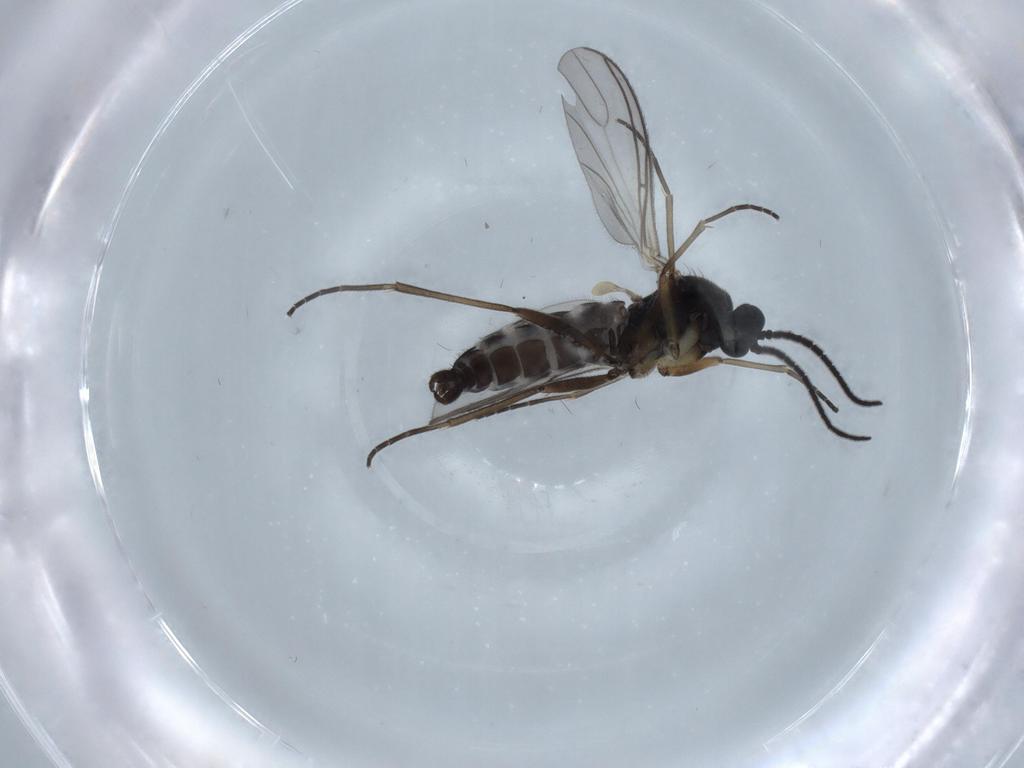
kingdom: Animalia
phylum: Arthropoda
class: Insecta
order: Diptera
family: Sciaridae
